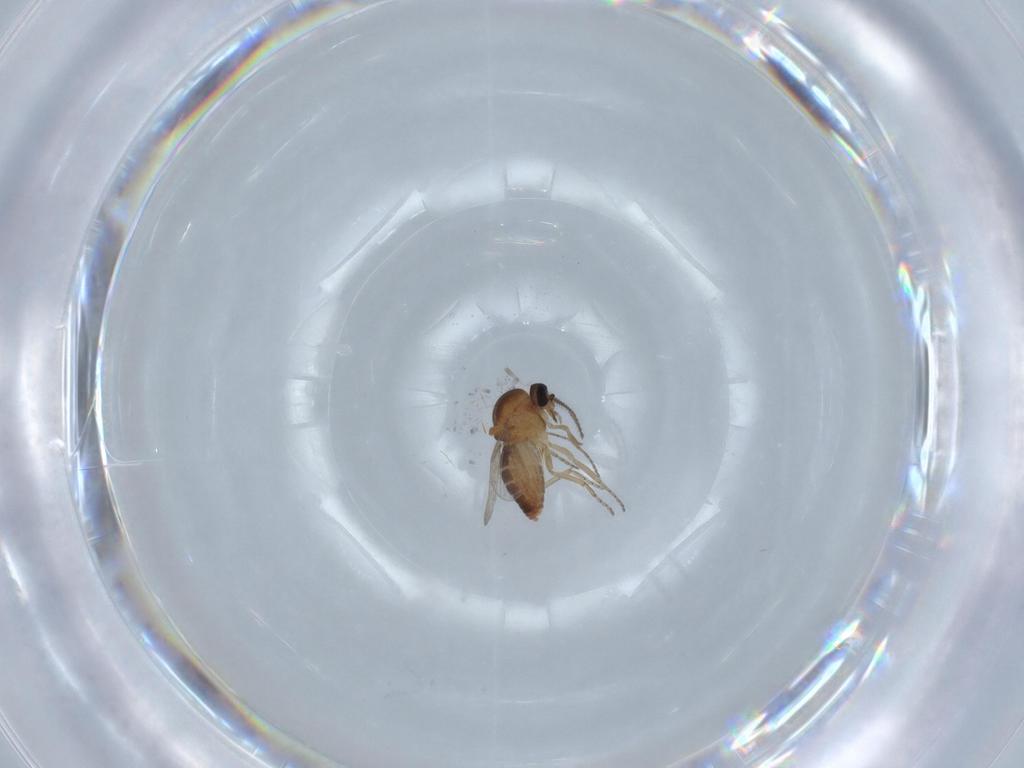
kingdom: Animalia
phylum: Arthropoda
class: Insecta
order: Diptera
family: Ceratopogonidae
